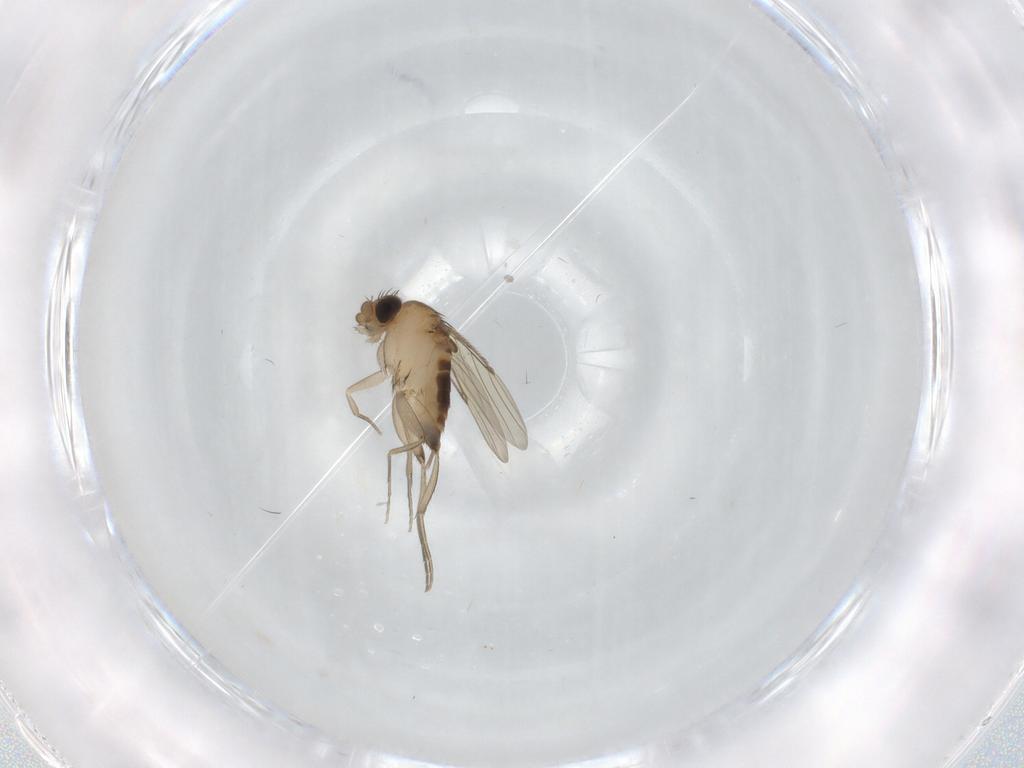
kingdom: Animalia
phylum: Arthropoda
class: Insecta
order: Diptera
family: Phoridae
